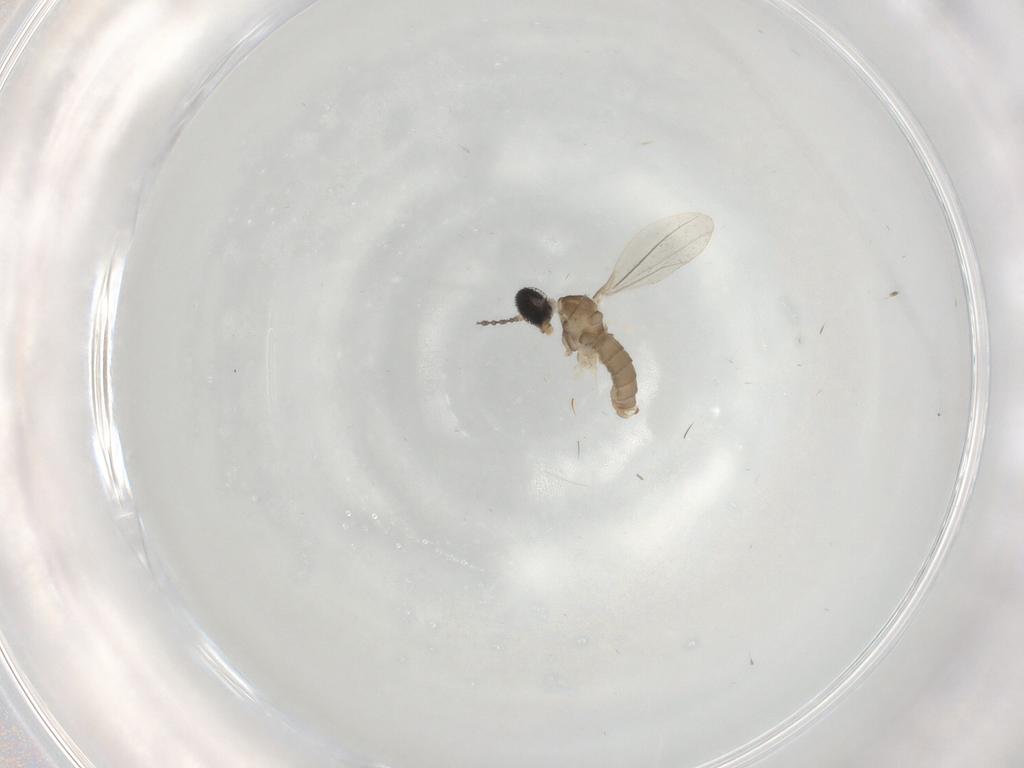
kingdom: Animalia
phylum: Arthropoda
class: Insecta
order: Diptera
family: Cecidomyiidae
